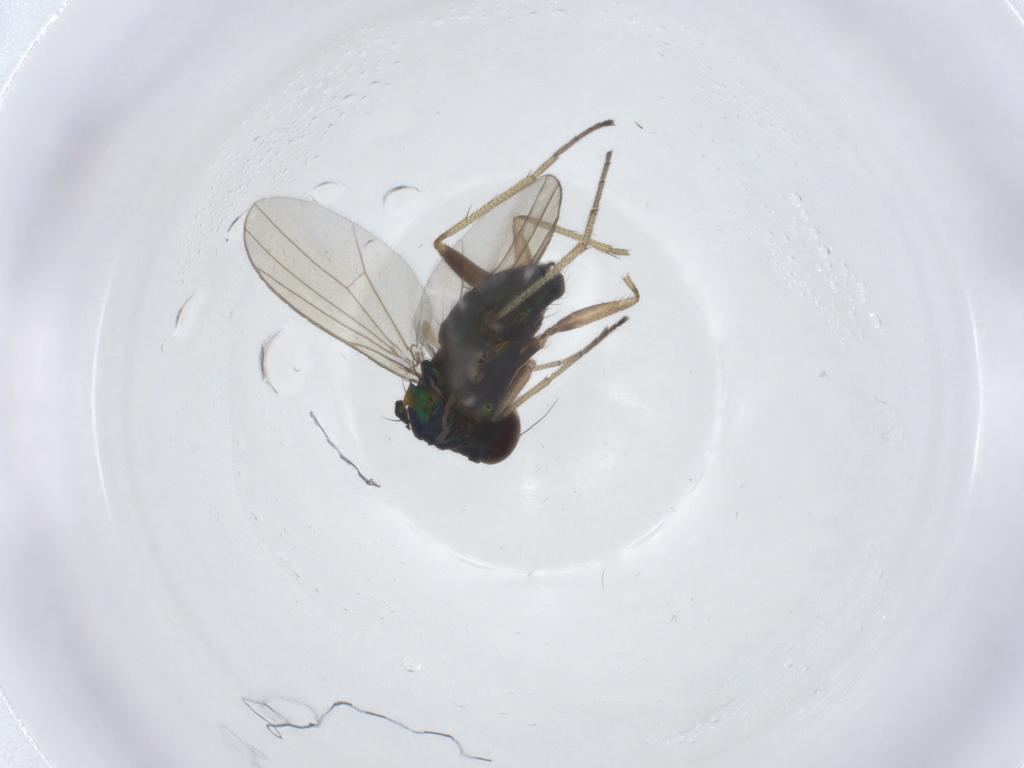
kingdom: Animalia
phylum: Arthropoda
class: Insecta
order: Diptera
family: Dolichopodidae
